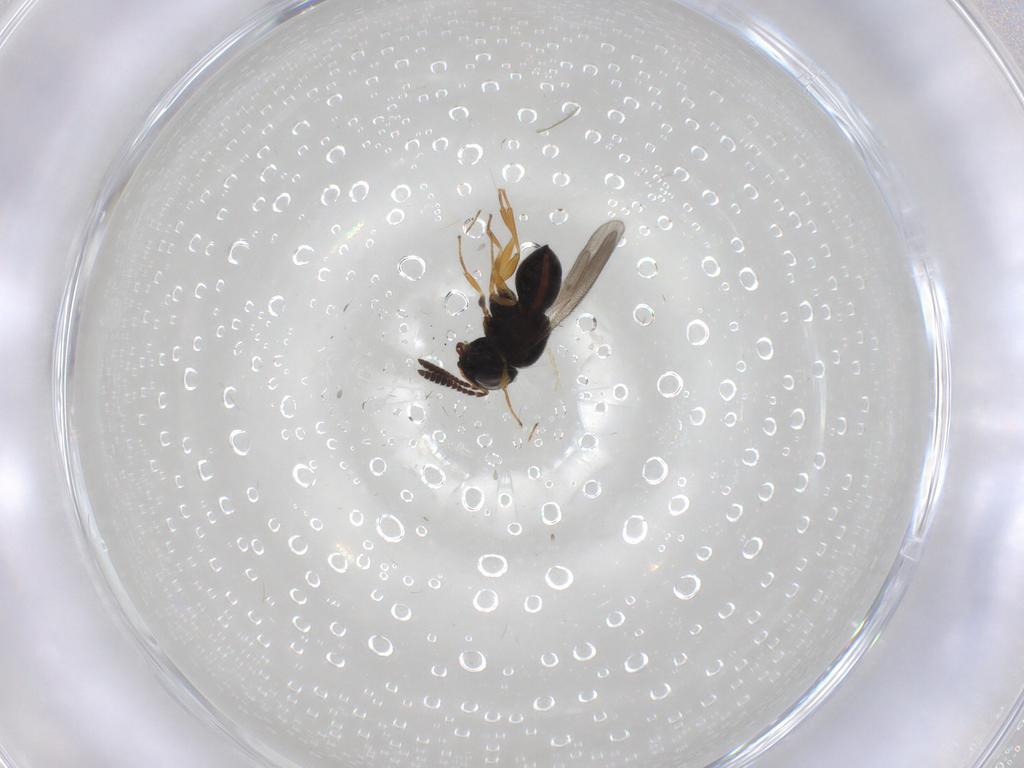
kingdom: Animalia
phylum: Arthropoda
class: Insecta
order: Hymenoptera
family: Scelionidae
